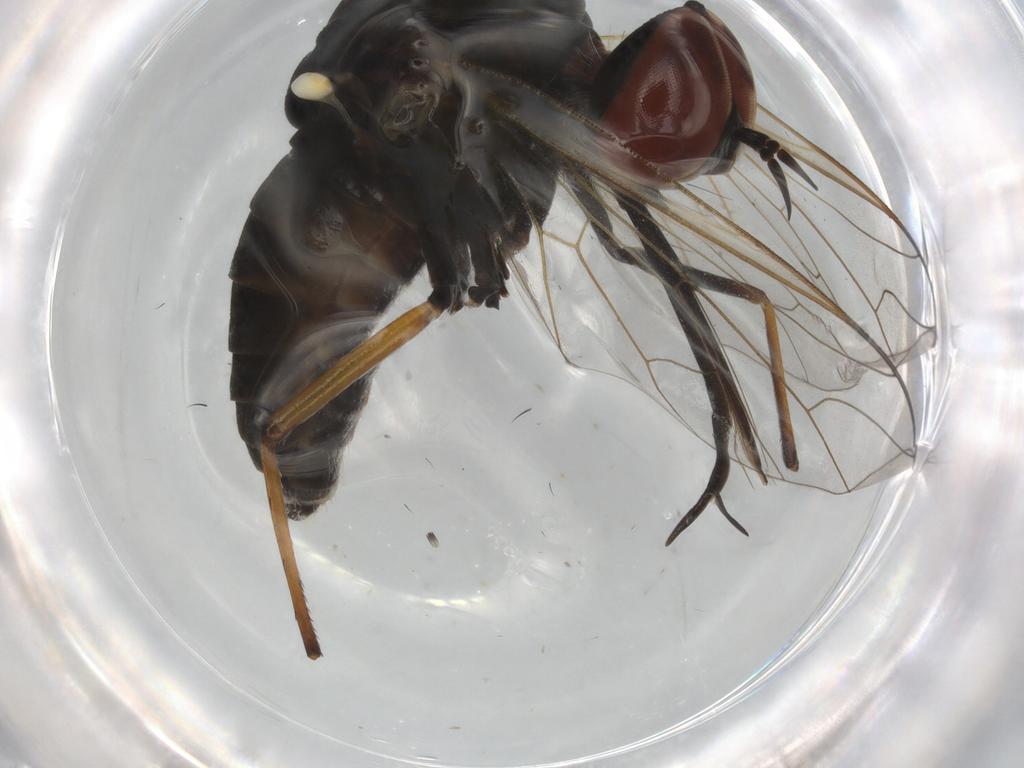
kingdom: Animalia
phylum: Arthropoda
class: Insecta
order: Diptera
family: Bombyliidae
